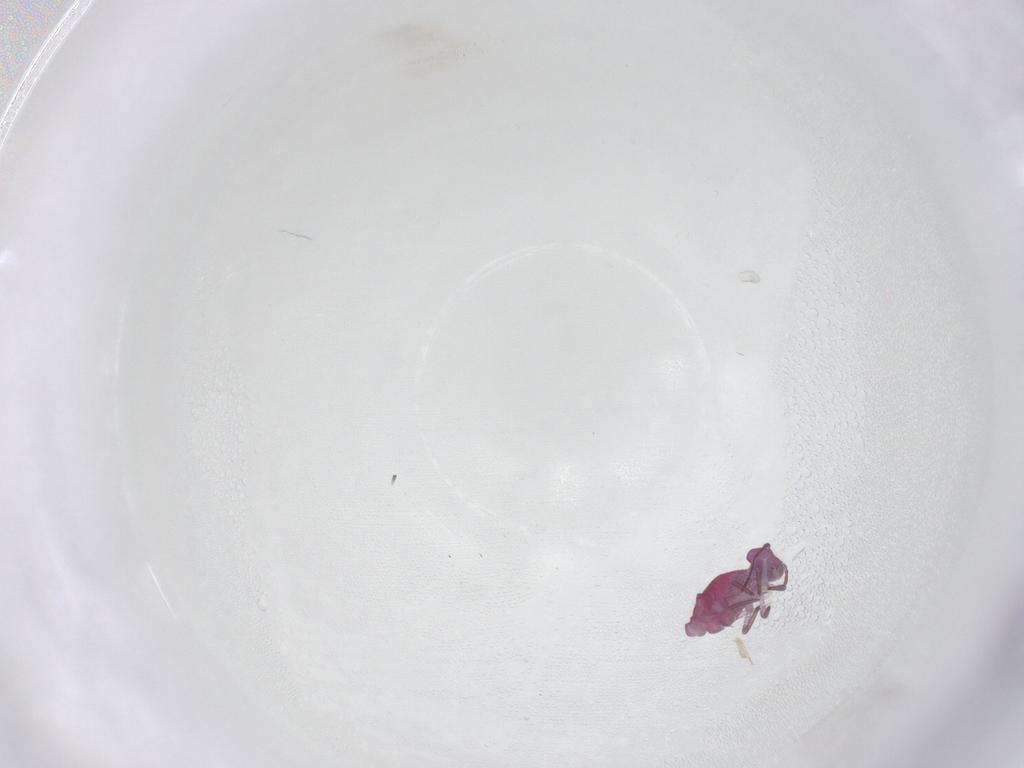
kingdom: Animalia
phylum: Arthropoda
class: Collembola
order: Symphypleona
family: Sminthuridae
